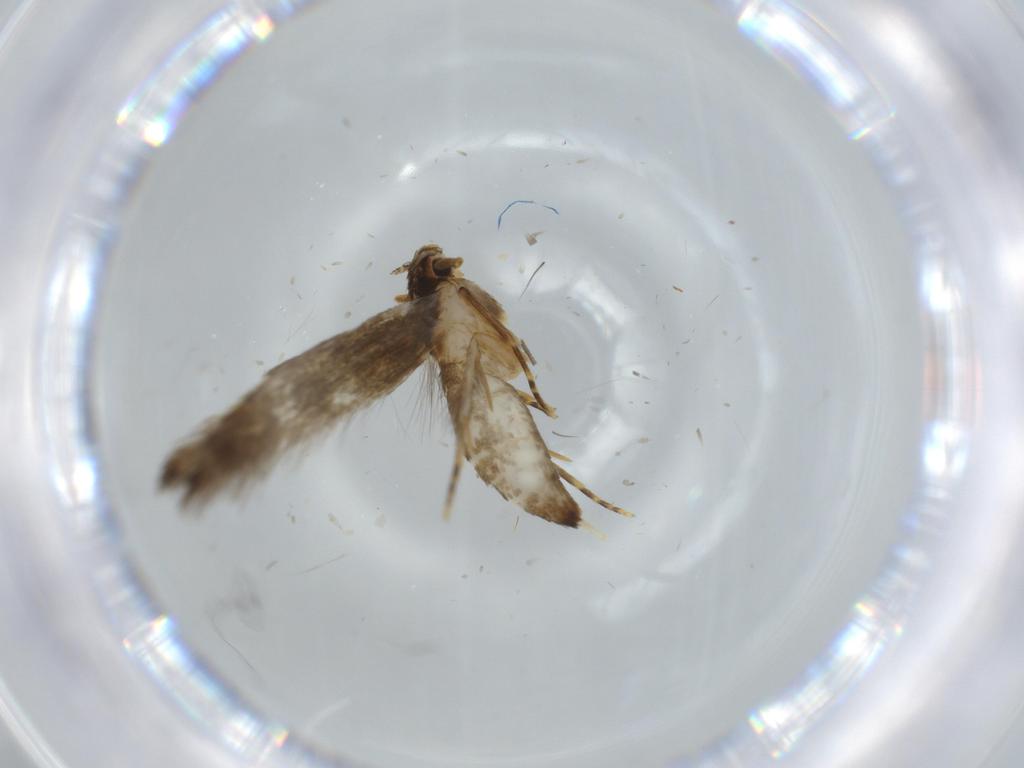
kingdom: Animalia
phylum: Arthropoda
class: Insecta
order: Lepidoptera
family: Tineidae
